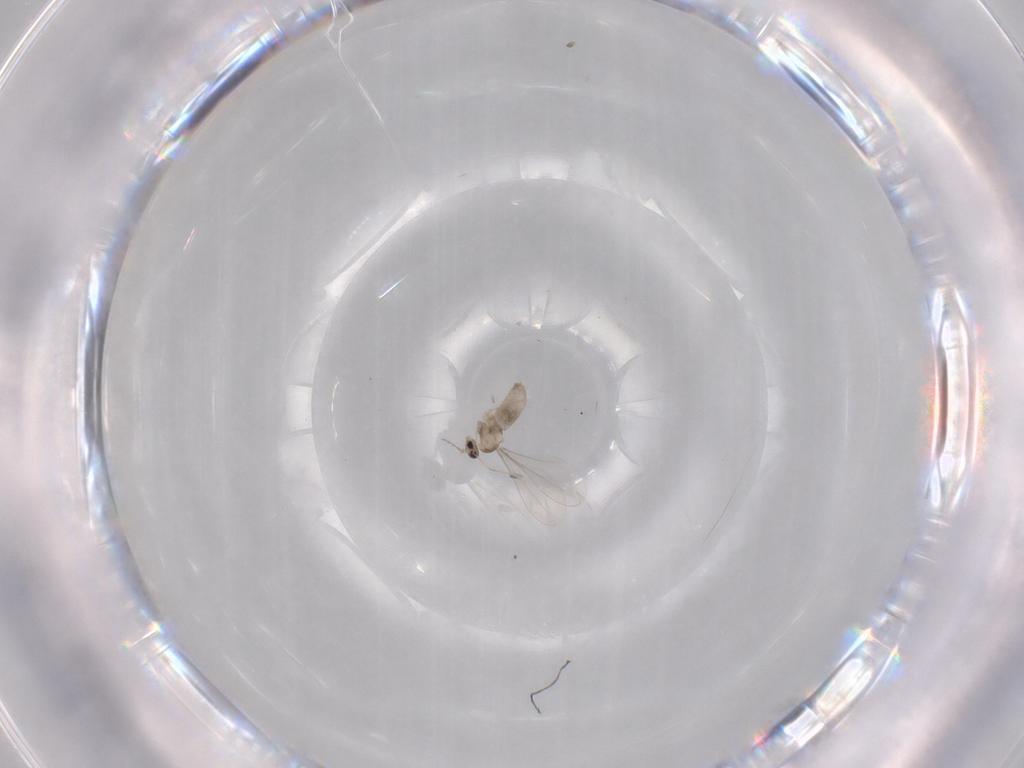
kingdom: Animalia
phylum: Arthropoda
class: Insecta
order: Diptera
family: Cecidomyiidae
